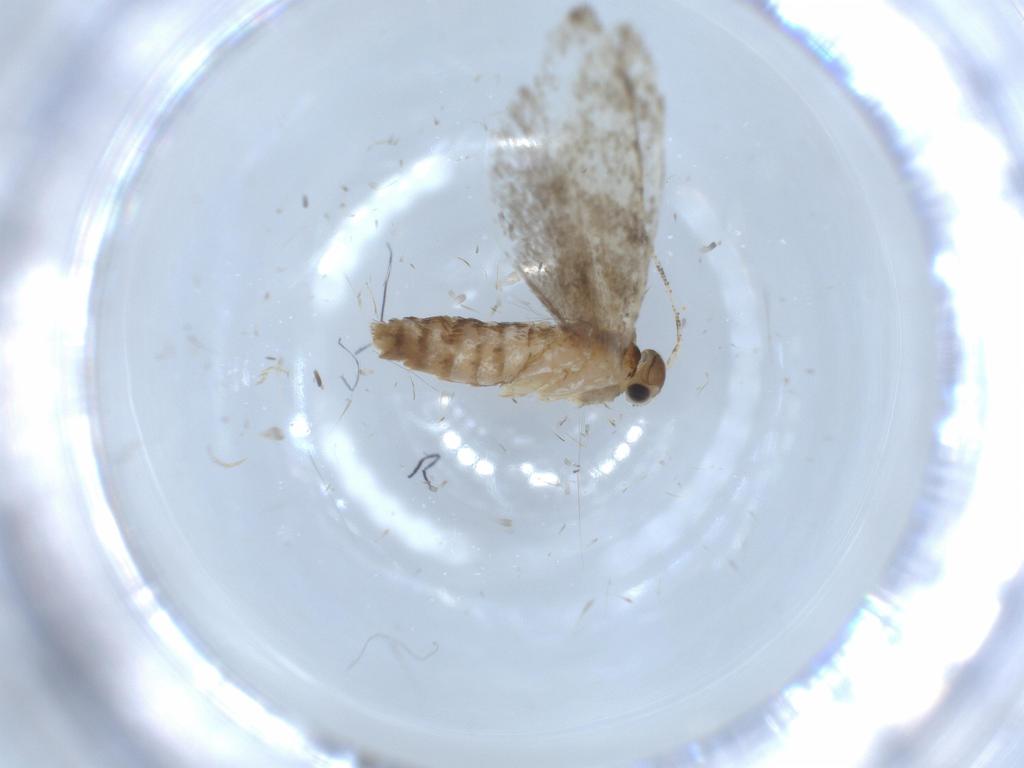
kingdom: Animalia
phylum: Arthropoda
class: Insecta
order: Lepidoptera
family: Tineidae
